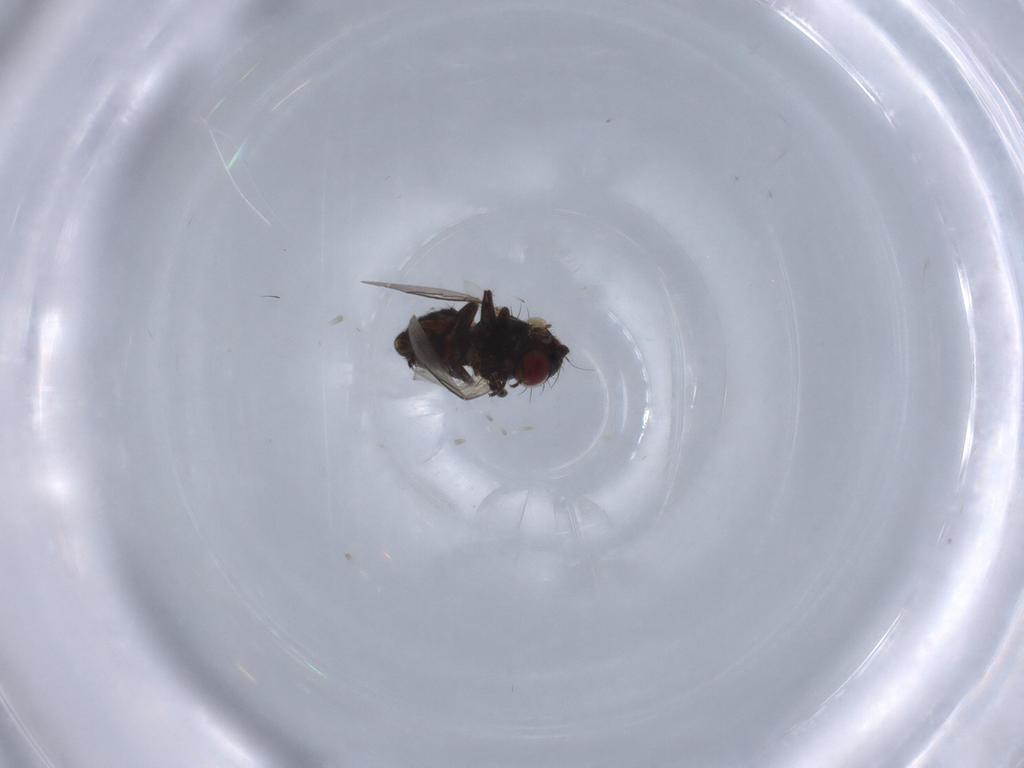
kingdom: Animalia
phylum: Arthropoda
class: Insecta
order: Diptera
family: Agromyzidae
